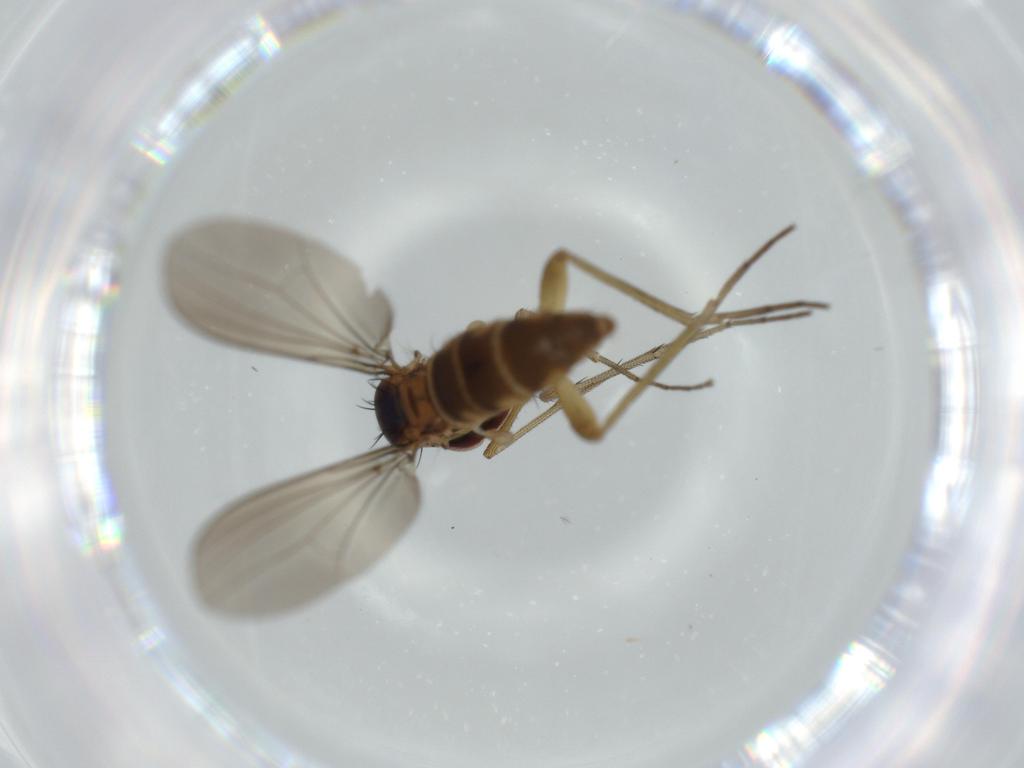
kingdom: Animalia
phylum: Arthropoda
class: Insecta
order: Diptera
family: Dolichopodidae
